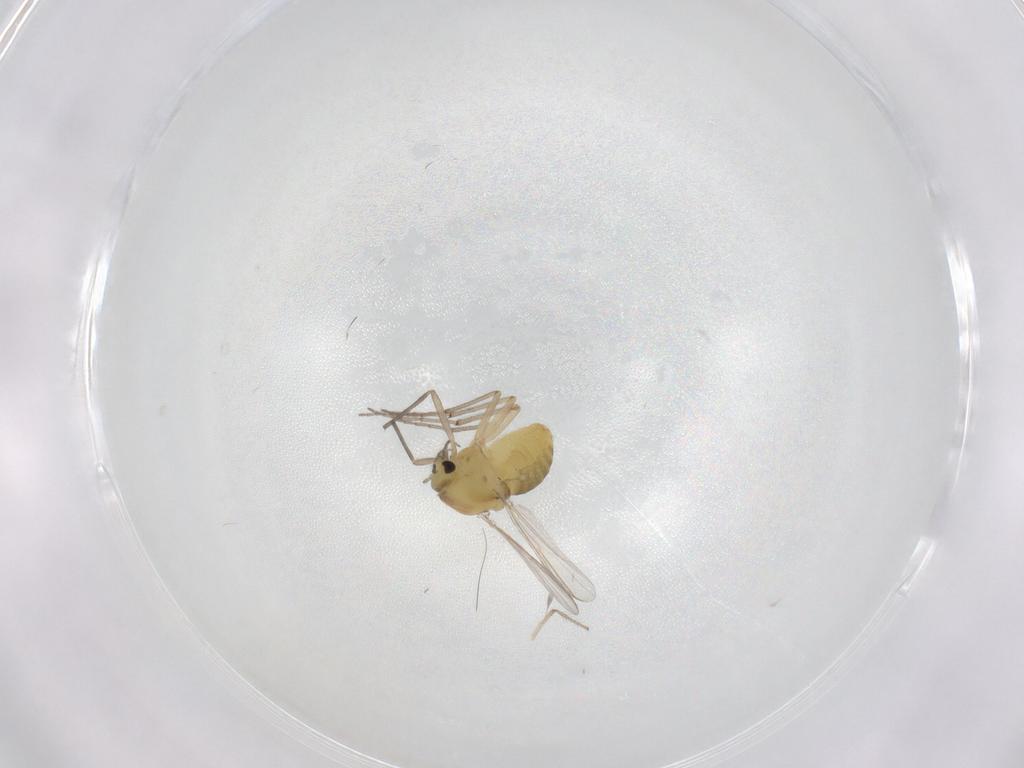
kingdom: Animalia
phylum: Arthropoda
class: Insecta
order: Diptera
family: Chironomidae
